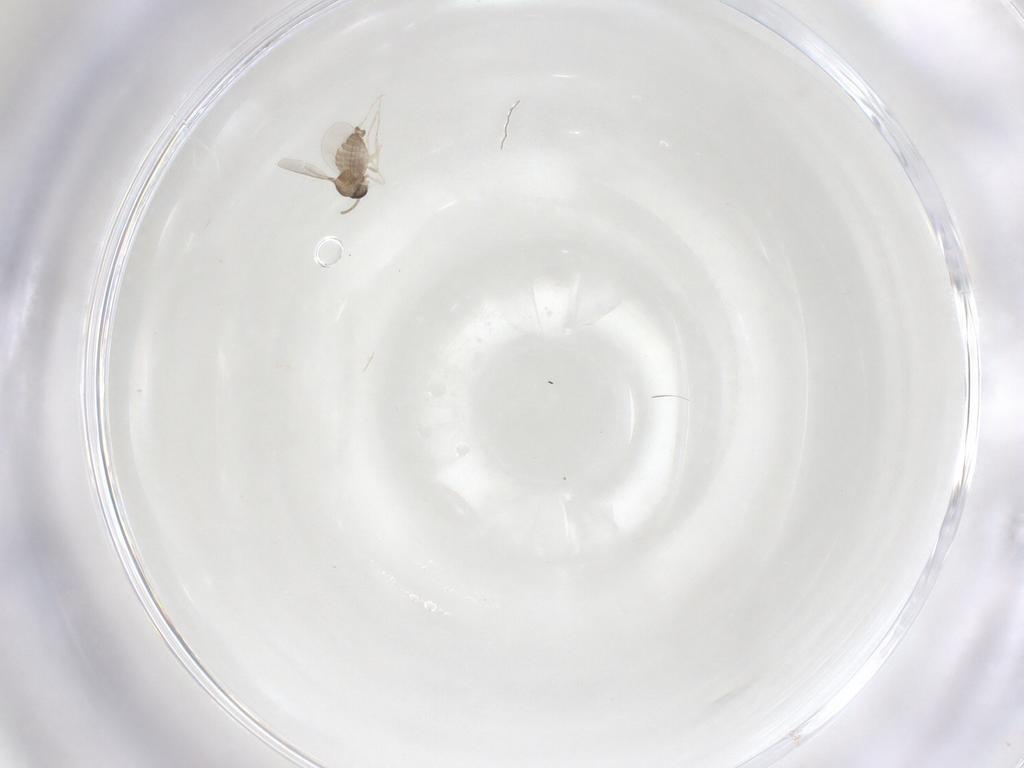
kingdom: Animalia
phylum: Arthropoda
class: Insecta
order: Diptera
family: Cecidomyiidae
